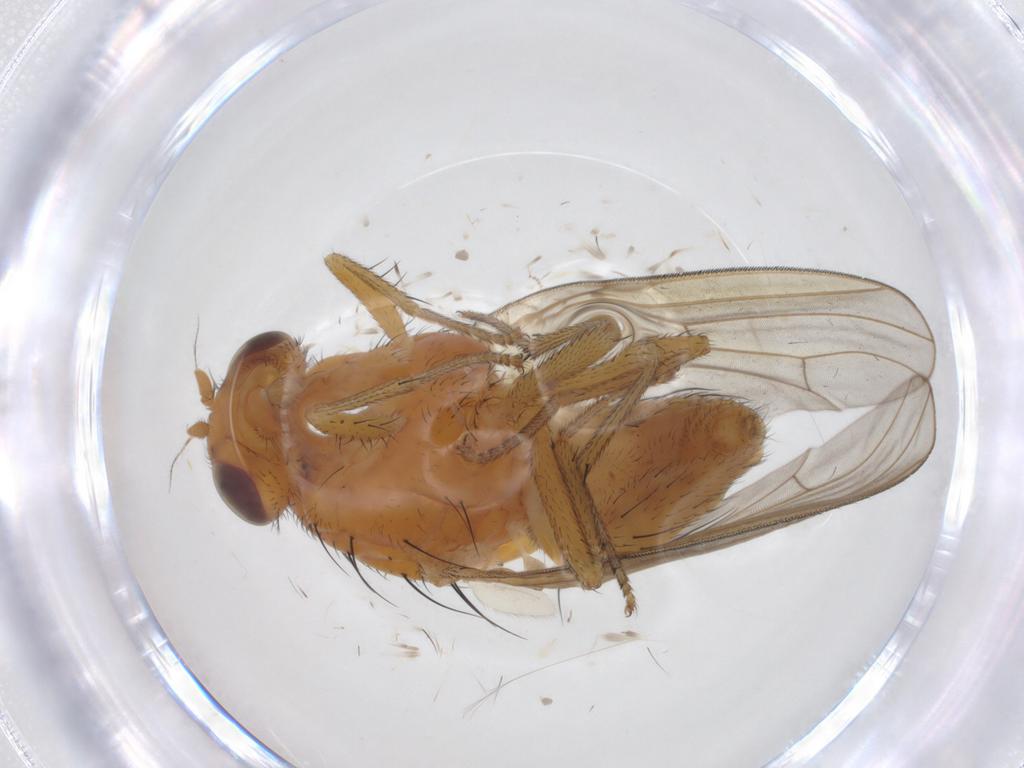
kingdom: Animalia
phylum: Arthropoda
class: Insecta
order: Diptera
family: Cecidomyiidae
